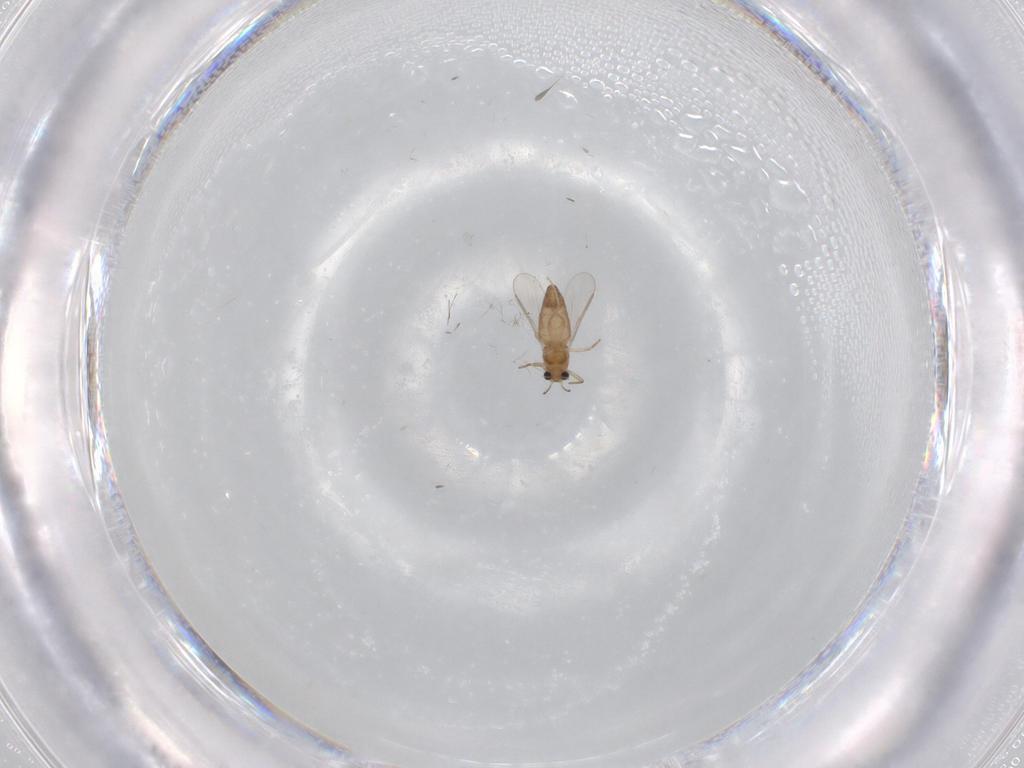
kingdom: Animalia
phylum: Arthropoda
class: Insecta
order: Diptera
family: Chironomidae
